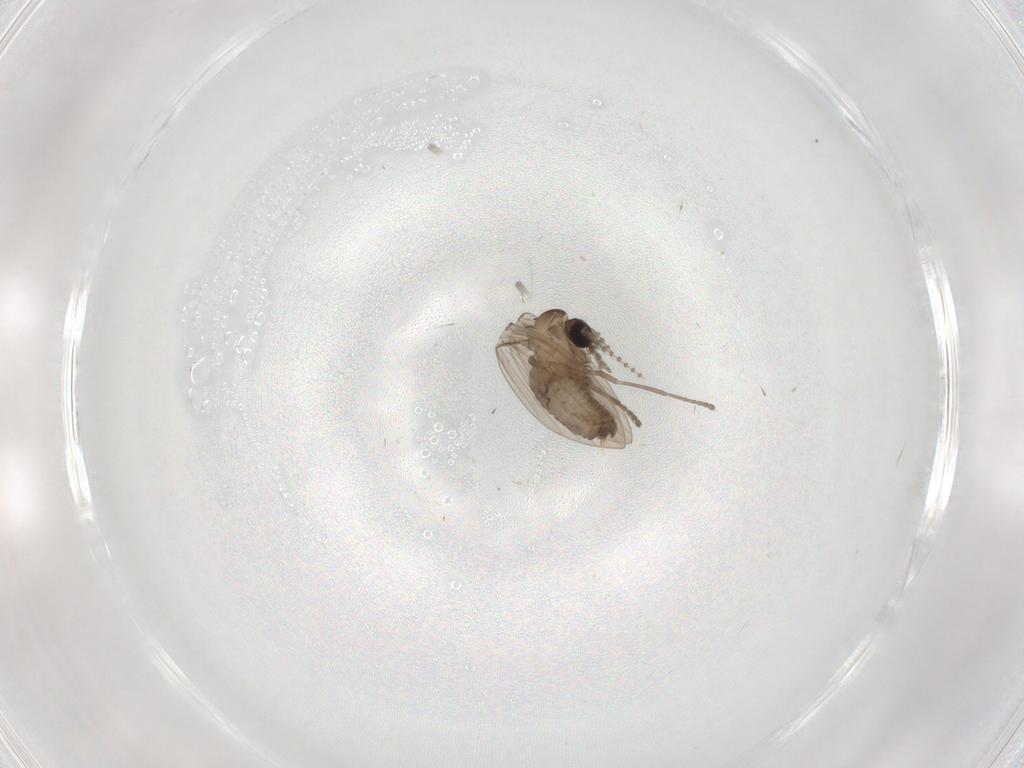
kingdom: Animalia
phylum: Arthropoda
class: Insecta
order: Diptera
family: Psychodidae
